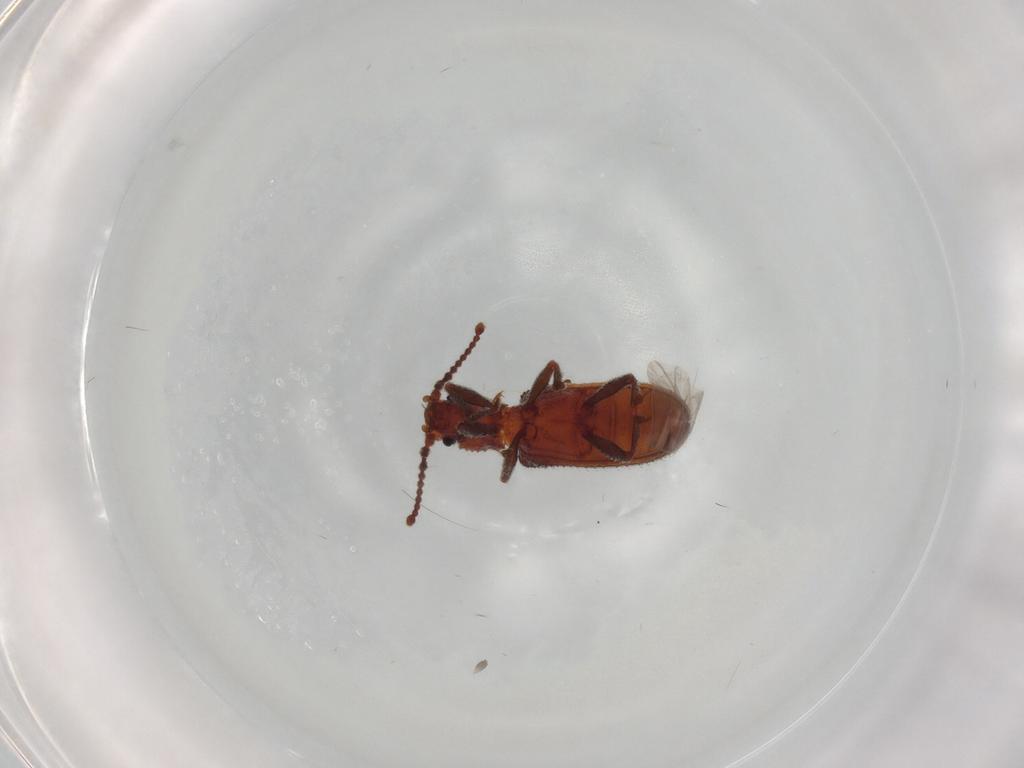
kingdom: Animalia
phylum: Arthropoda
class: Insecta
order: Coleoptera
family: Zopheridae
